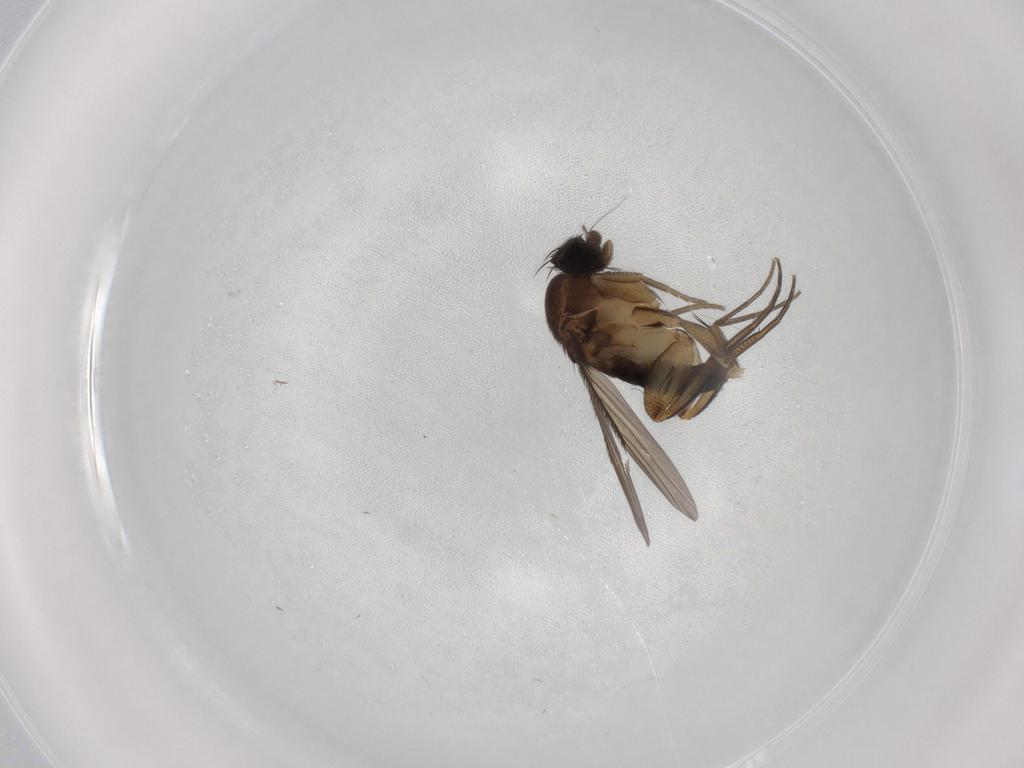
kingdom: Animalia
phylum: Arthropoda
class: Insecta
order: Diptera
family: Phoridae
